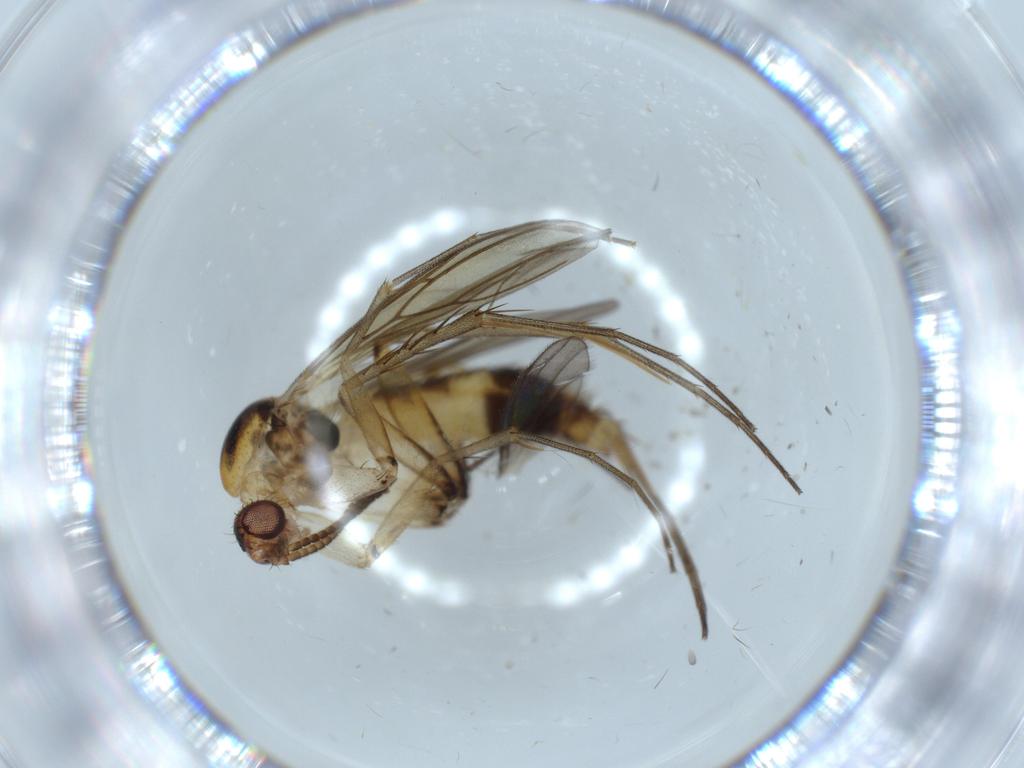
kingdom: Animalia
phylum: Arthropoda
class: Insecta
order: Diptera
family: Mycetophilidae
